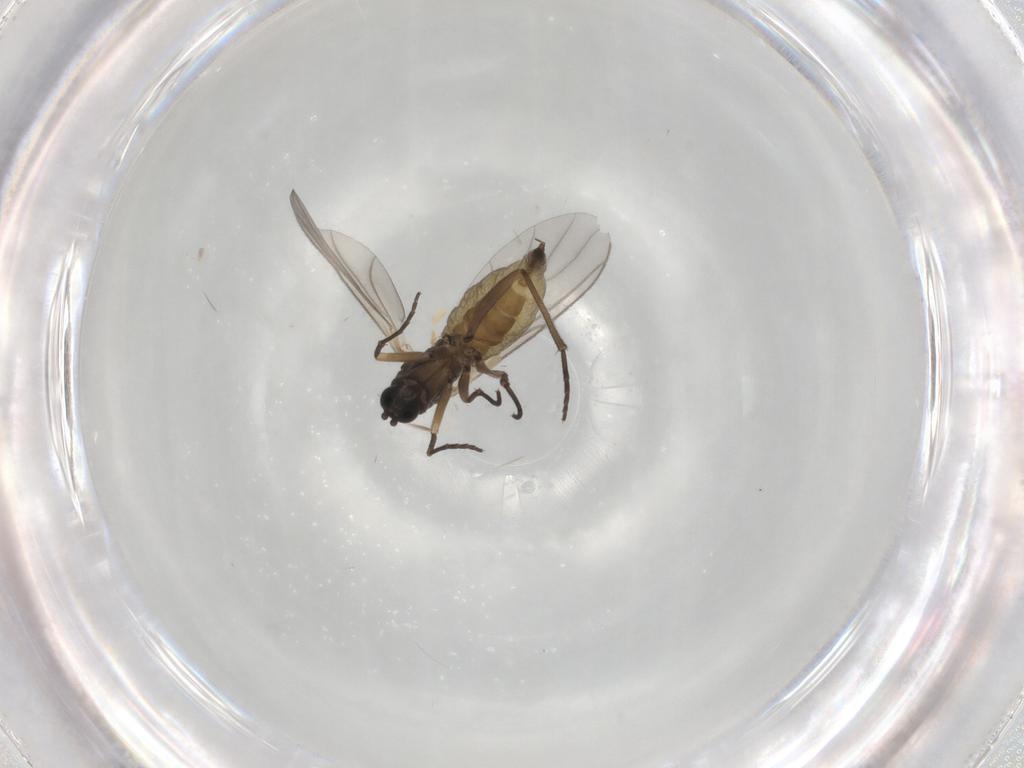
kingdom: Animalia
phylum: Arthropoda
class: Insecta
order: Diptera
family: Sciaridae
